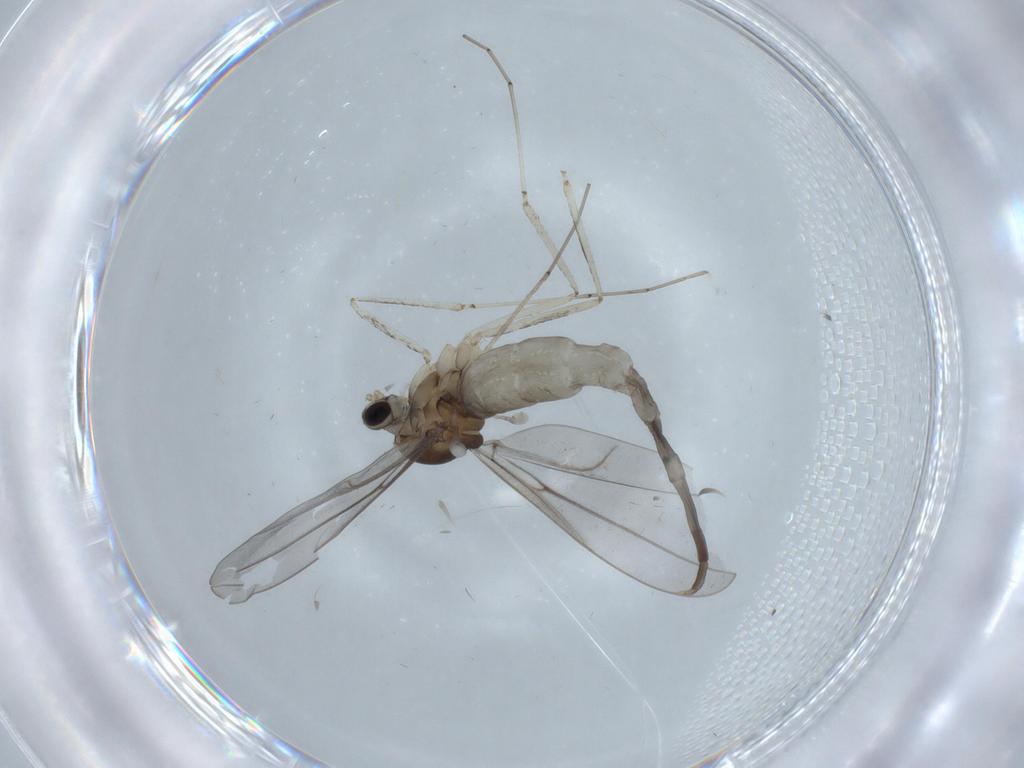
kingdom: Animalia
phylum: Arthropoda
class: Insecta
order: Diptera
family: Cecidomyiidae
